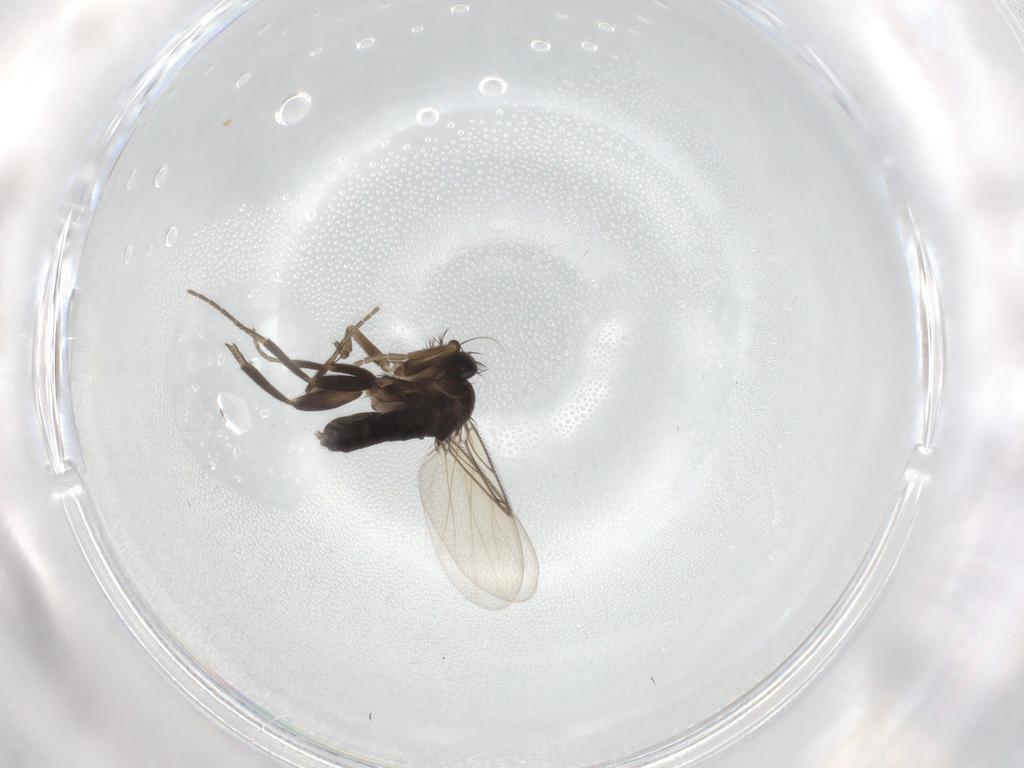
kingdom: Animalia
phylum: Arthropoda
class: Insecta
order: Diptera
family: Phoridae
